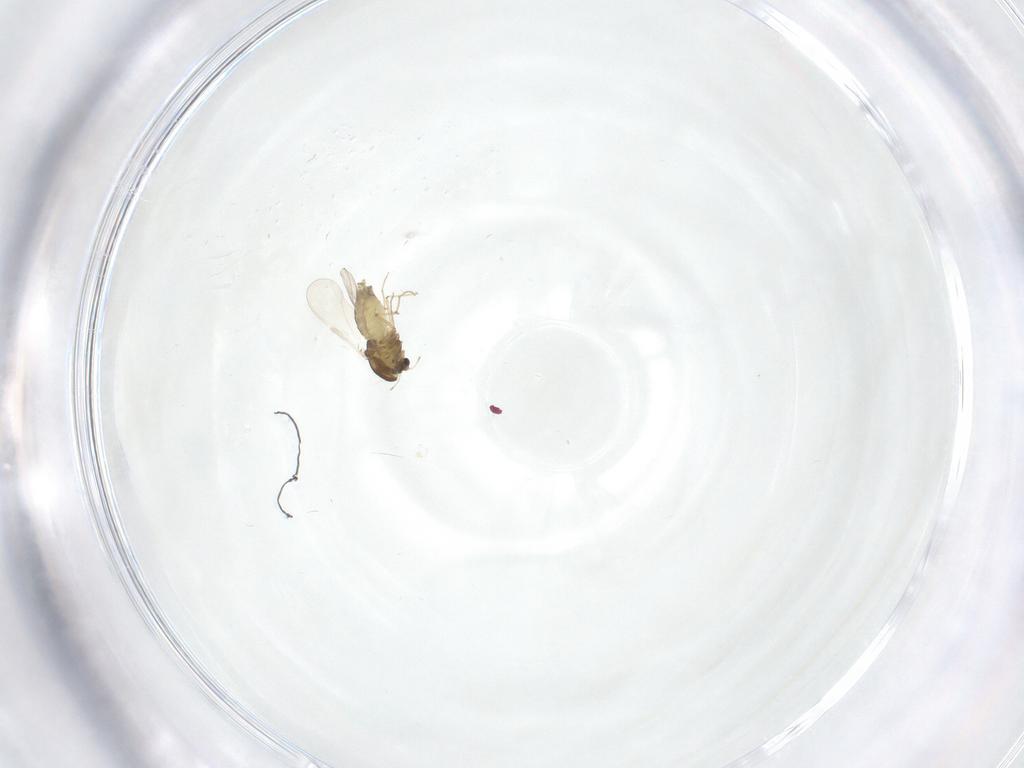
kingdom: Animalia
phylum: Arthropoda
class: Insecta
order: Diptera
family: Chironomidae
